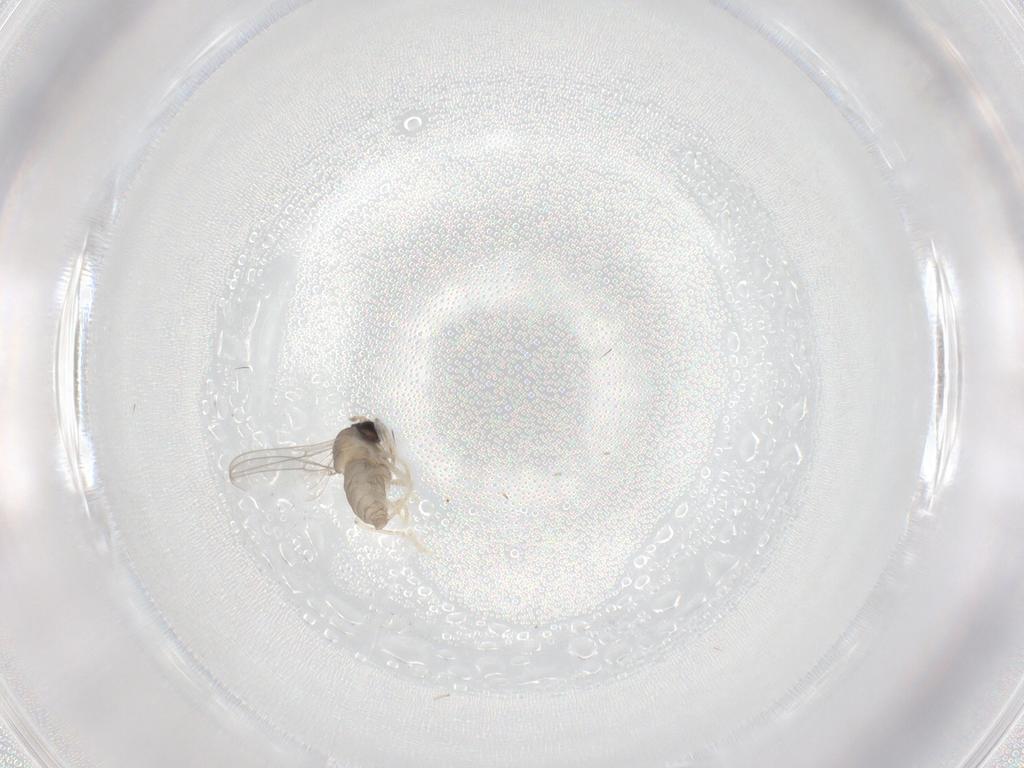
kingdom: Animalia
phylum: Arthropoda
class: Insecta
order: Diptera
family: Cecidomyiidae
